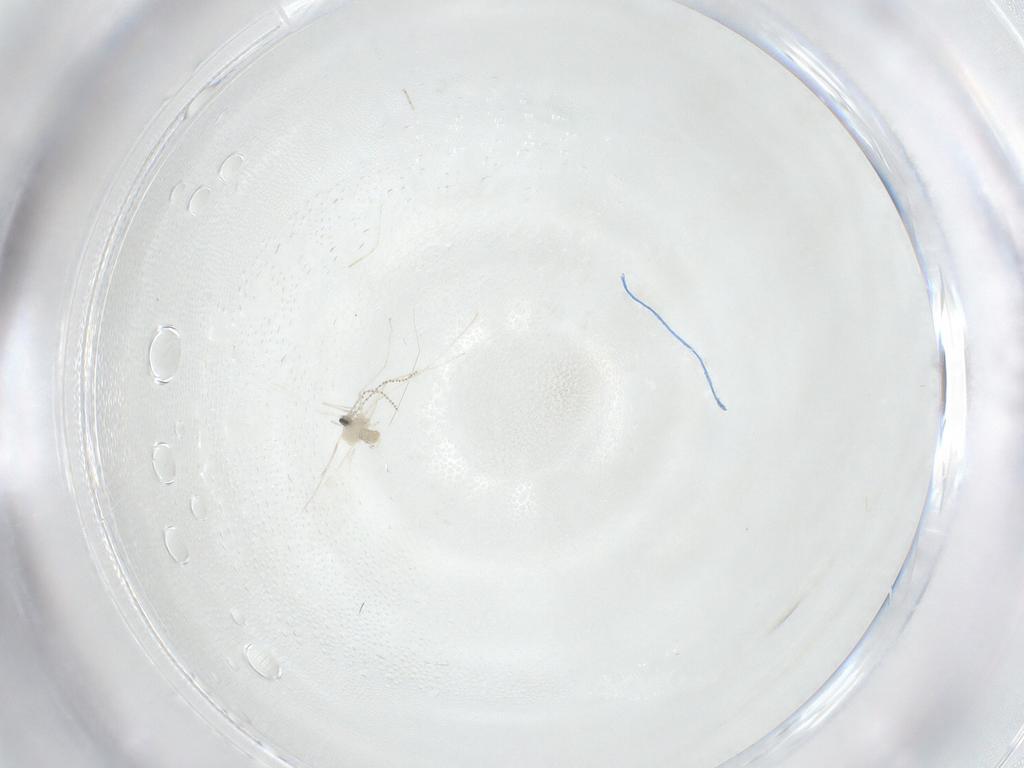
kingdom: Animalia
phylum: Arthropoda
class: Insecta
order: Diptera
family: Cecidomyiidae
